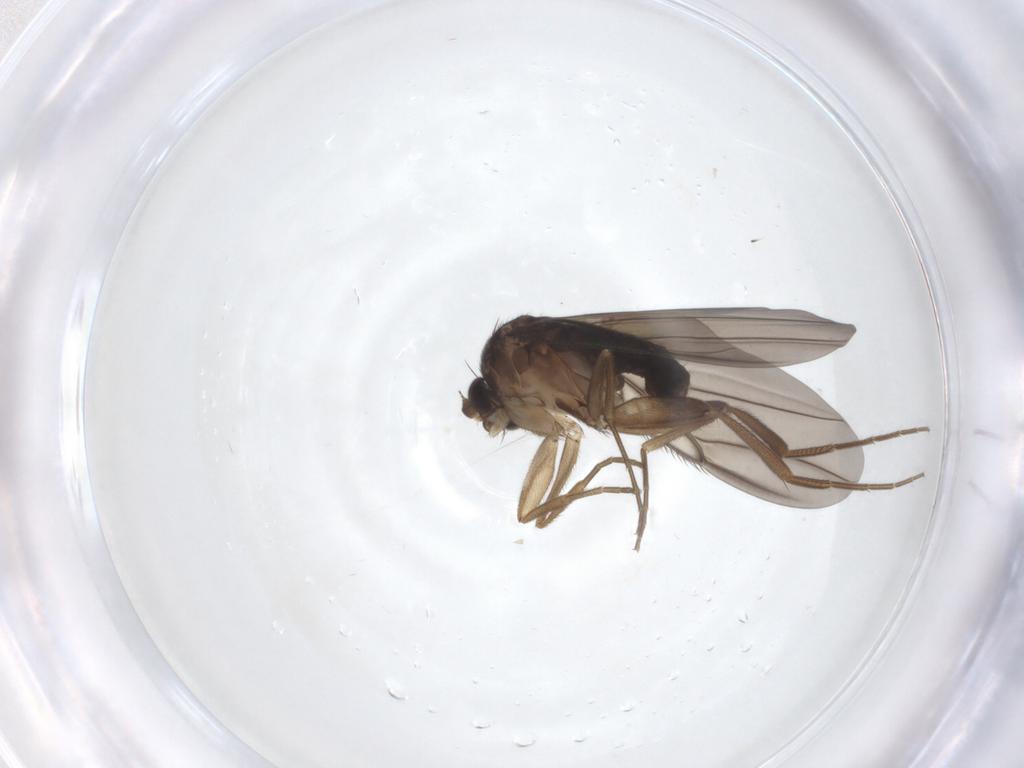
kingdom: Animalia
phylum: Arthropoda
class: Insecta
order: Diptera
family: Phoridae
